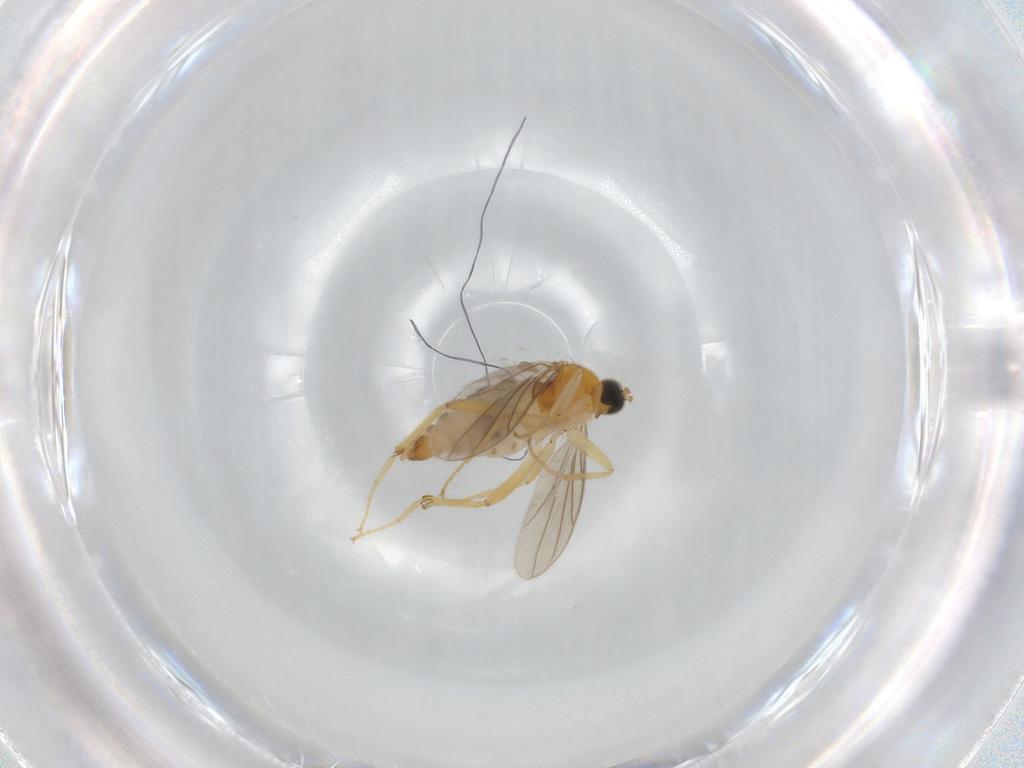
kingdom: Animalia
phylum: Arthropoda
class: Insecta
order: Diptera
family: Hybotidae
